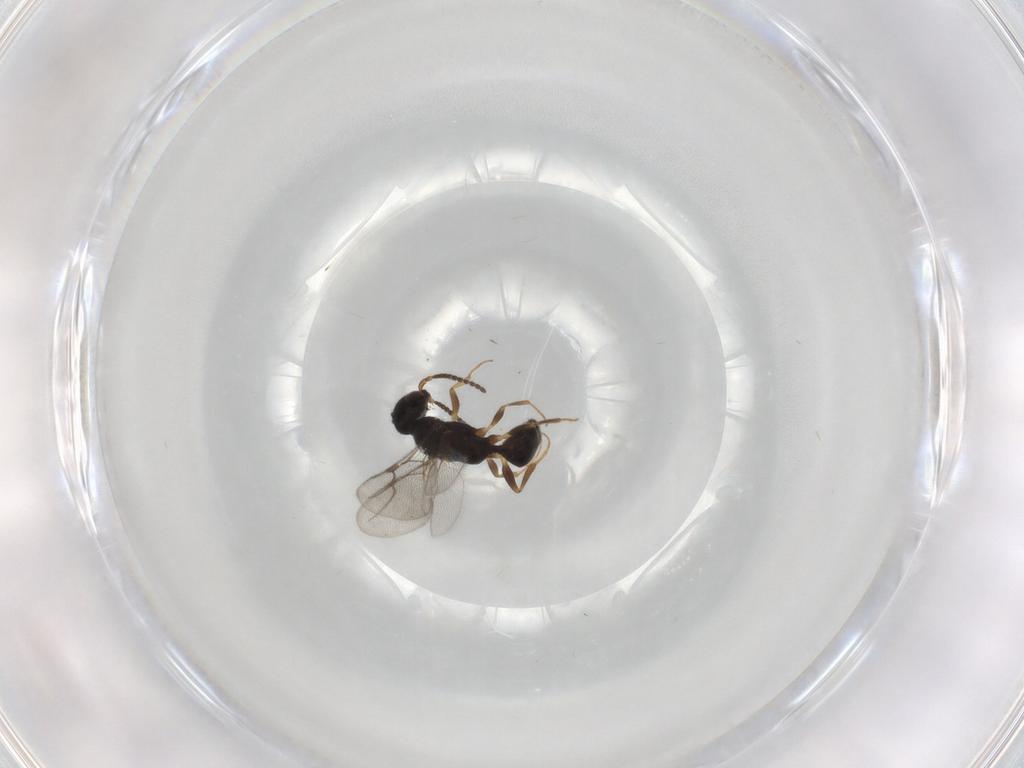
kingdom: Animalia
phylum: Arthropoda
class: Insecta
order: Hymenoptera
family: Bethylidae
